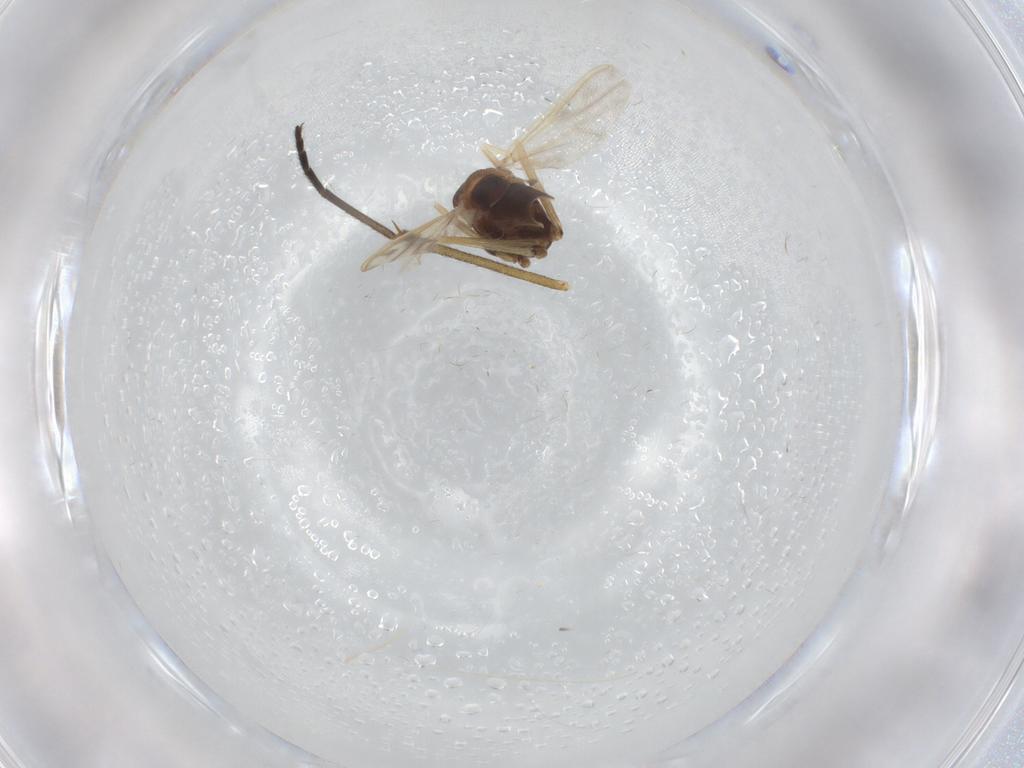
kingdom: Animalia
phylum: Arthropoda
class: Insecta
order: Diptera
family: Chironomidae
